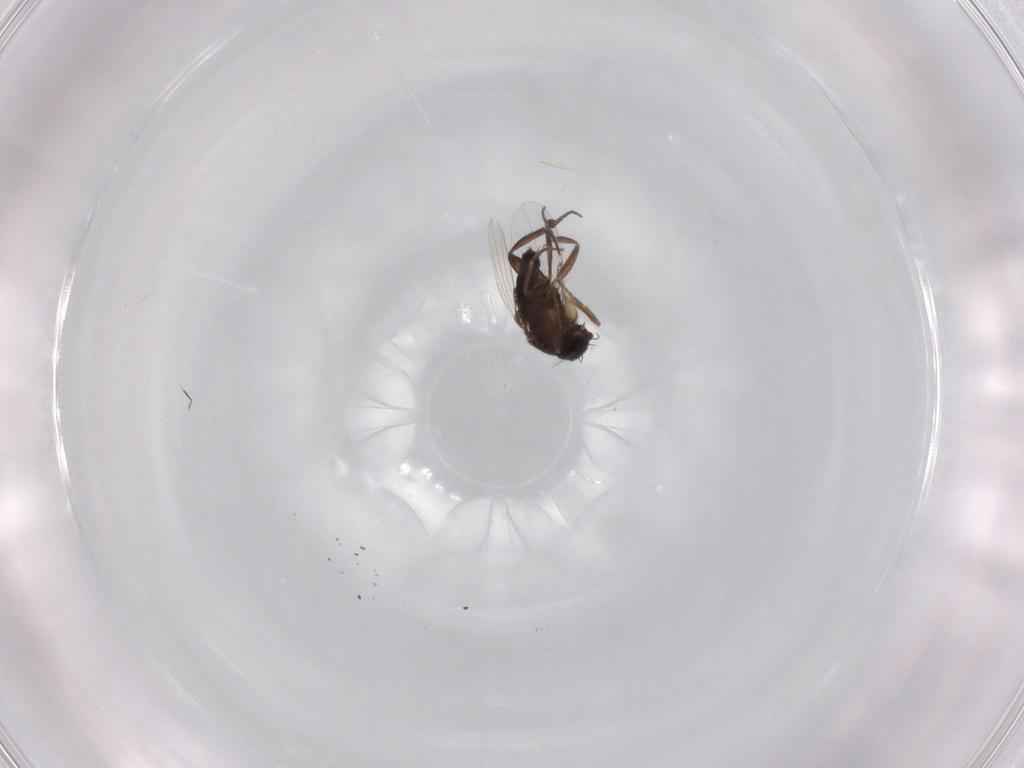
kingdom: Animalia
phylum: Arthropoda
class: Insecta
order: Diptera
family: Phoridae
